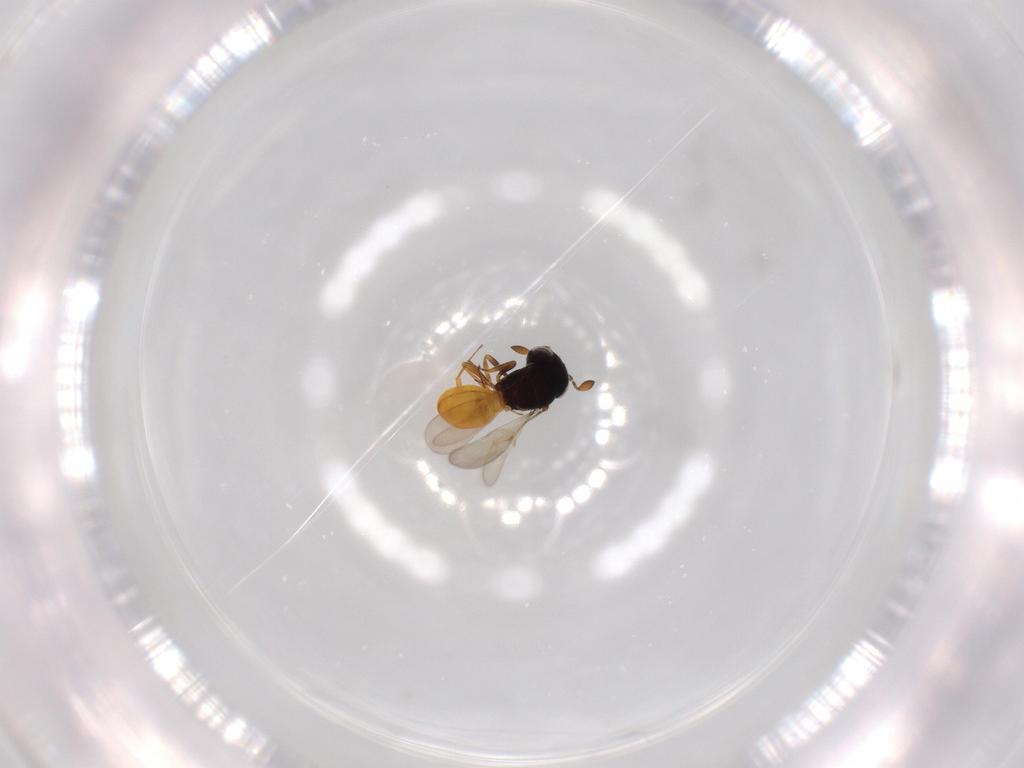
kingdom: Animalia
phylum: Arthropoda
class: Insecta
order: Hymenoptera
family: Scelionidae
